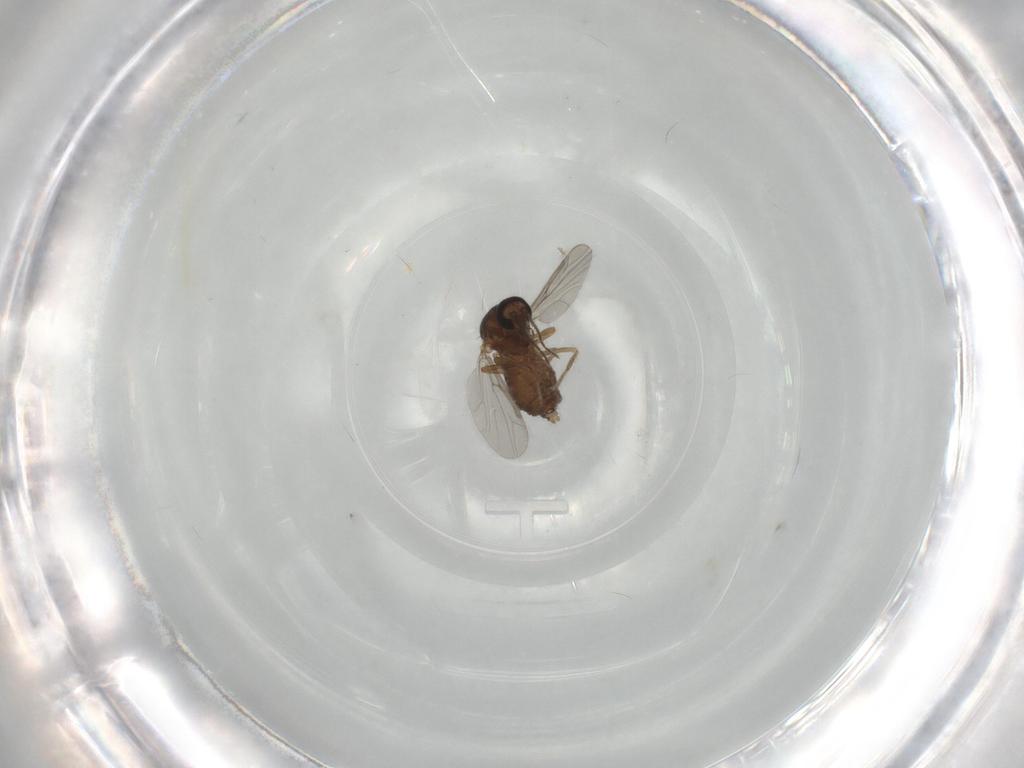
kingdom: Animalia
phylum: Arthropoda
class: Insecta
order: Diptera
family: Ceratopogonidae
